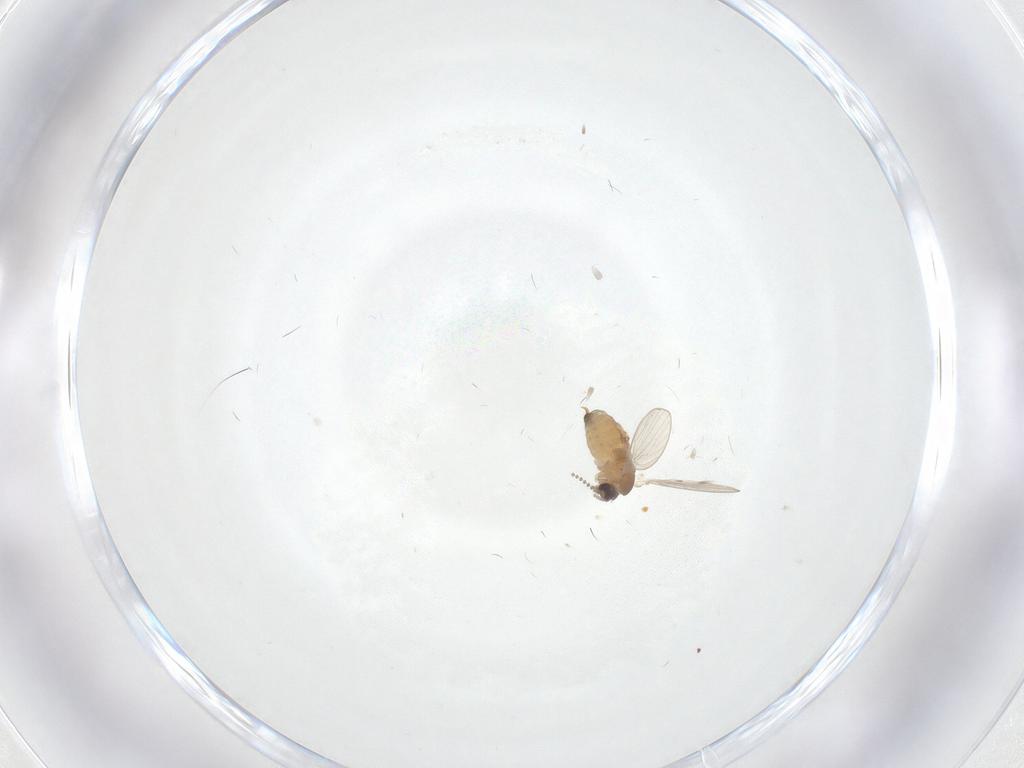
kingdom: Animalia
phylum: Arthropoda
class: Insecta
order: Diptera
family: Psychodidae
